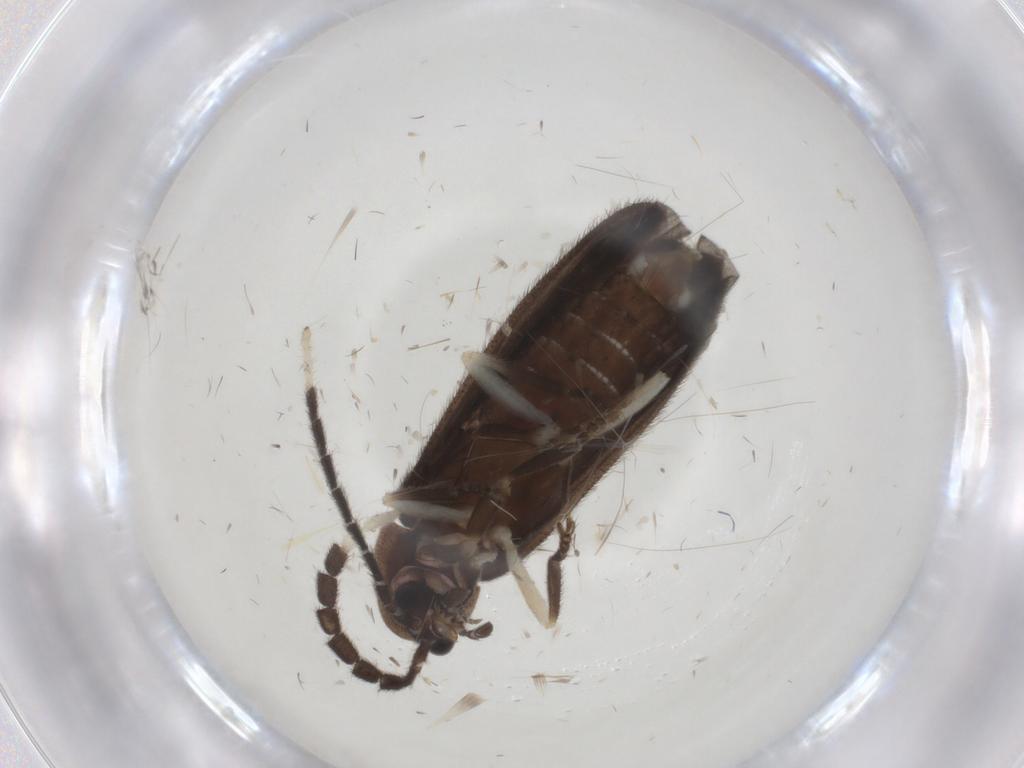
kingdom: Animalia
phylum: Arthropoda
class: Insecta
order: Coleoptera
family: Lampyridae
